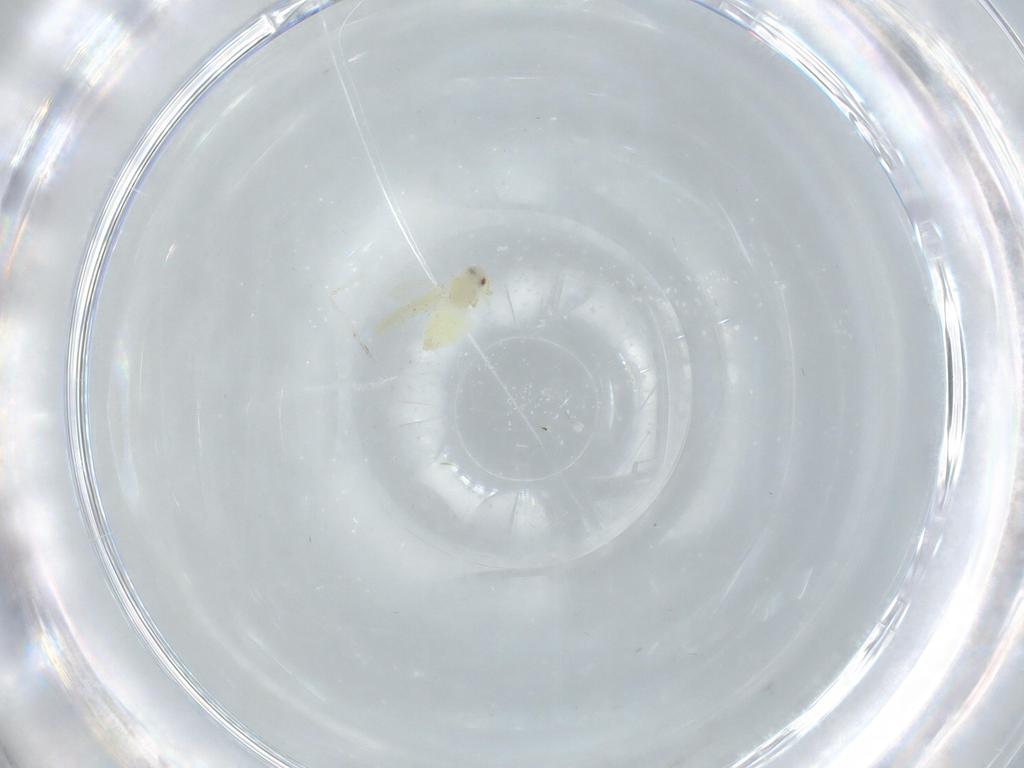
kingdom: Animalia
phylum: Arthropoda
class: Insecta
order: Hemiptera
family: Aleyrodidae
